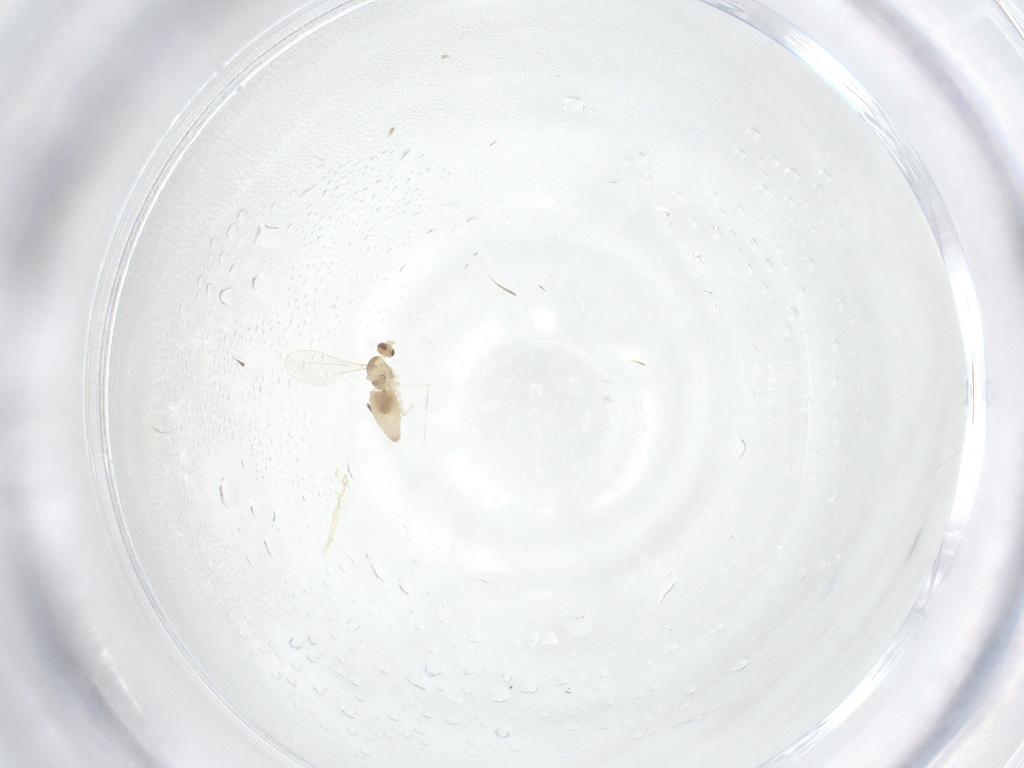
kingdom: Animalia
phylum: Arthropoda
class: Insecta
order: Diptera
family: Cecidomyiidae
